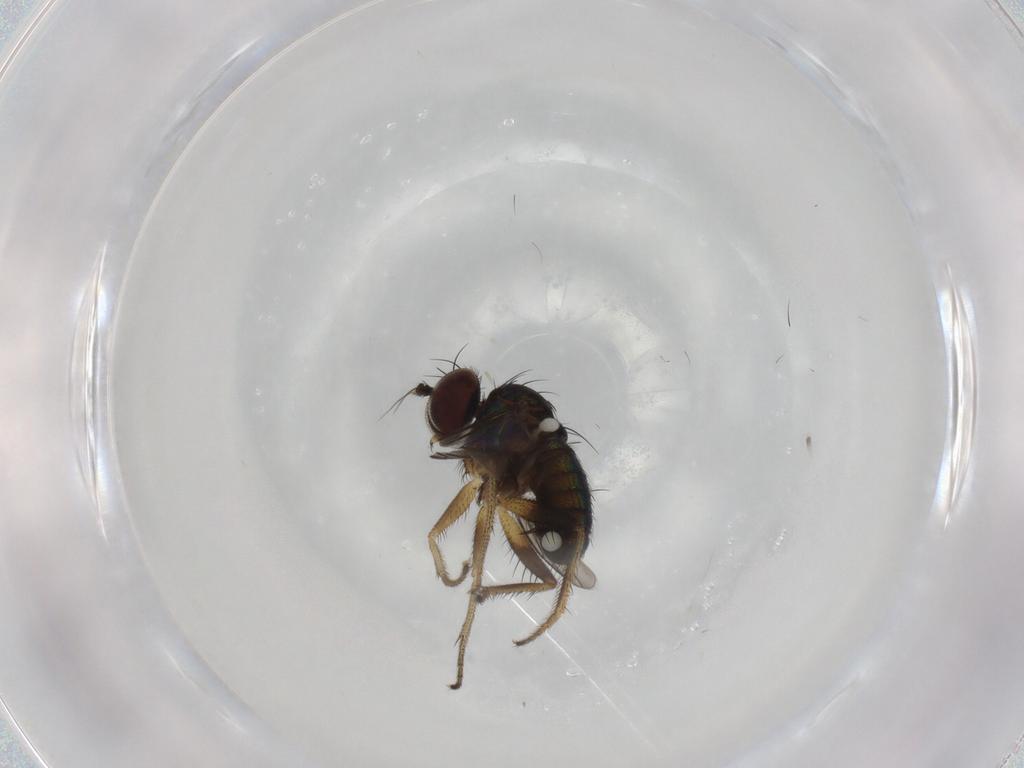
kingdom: Animalia
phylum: Arthropoda
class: Insecta
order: Diptera
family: Dolichopodidae
